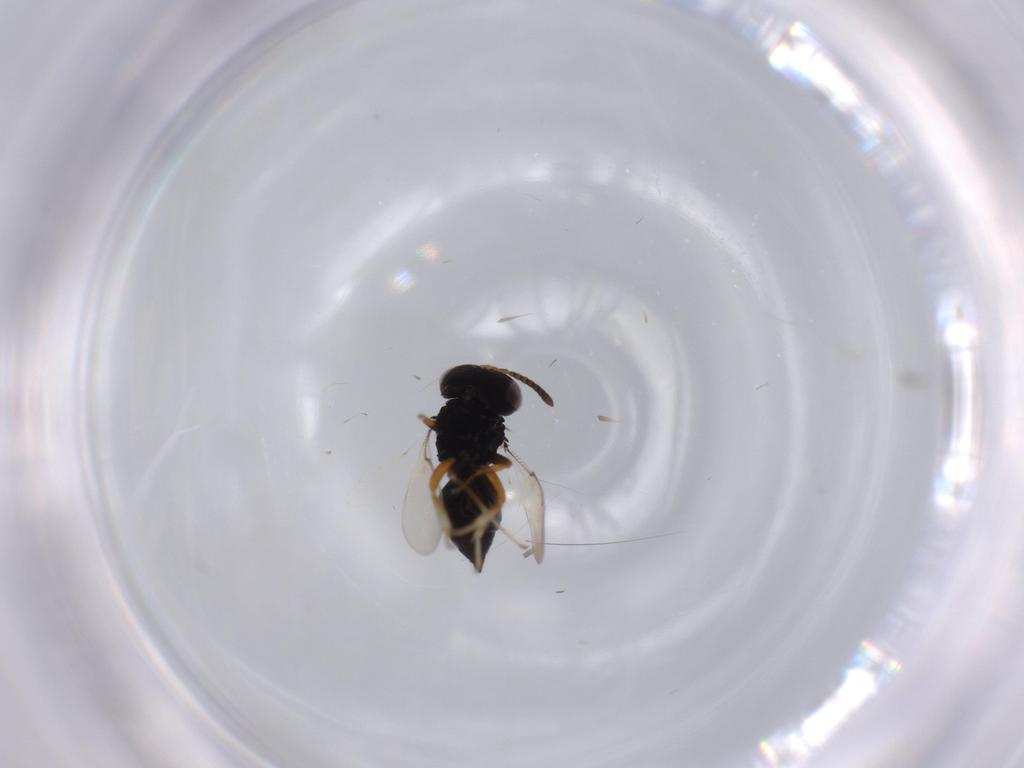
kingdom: Animalia
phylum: Arthropoda
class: Insecta
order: Hymenoptera
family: Pteromalidae
